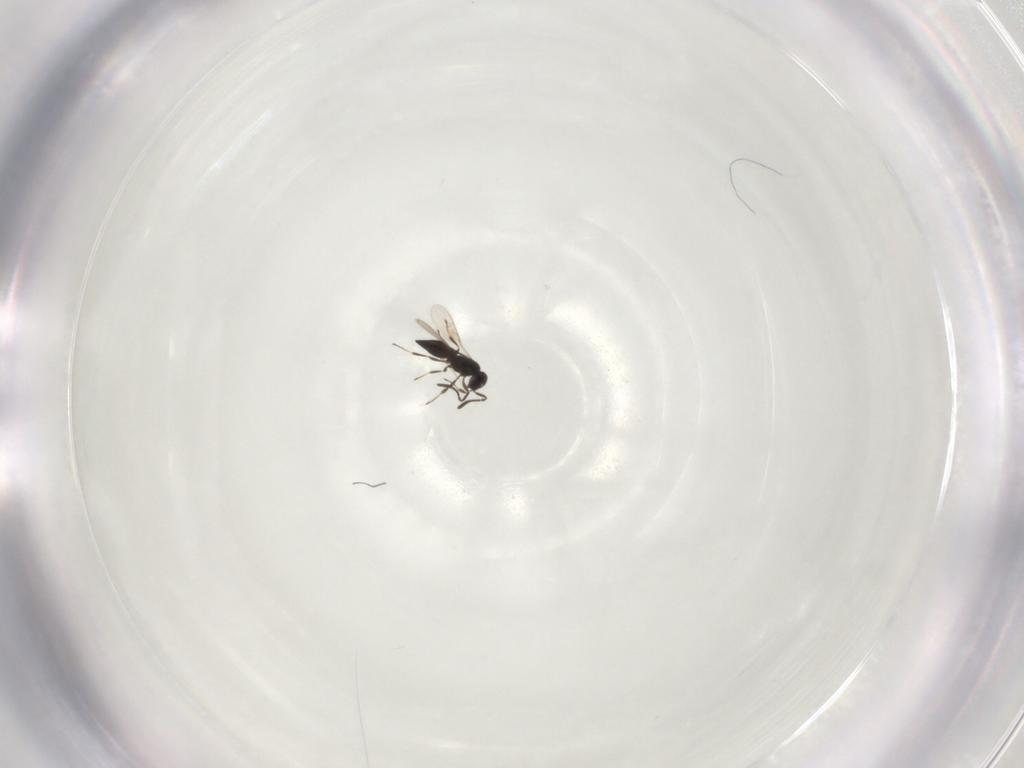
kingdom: Animalia
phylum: Arthropoda
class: Insecta
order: Hymenoptera
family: Scelionidae
